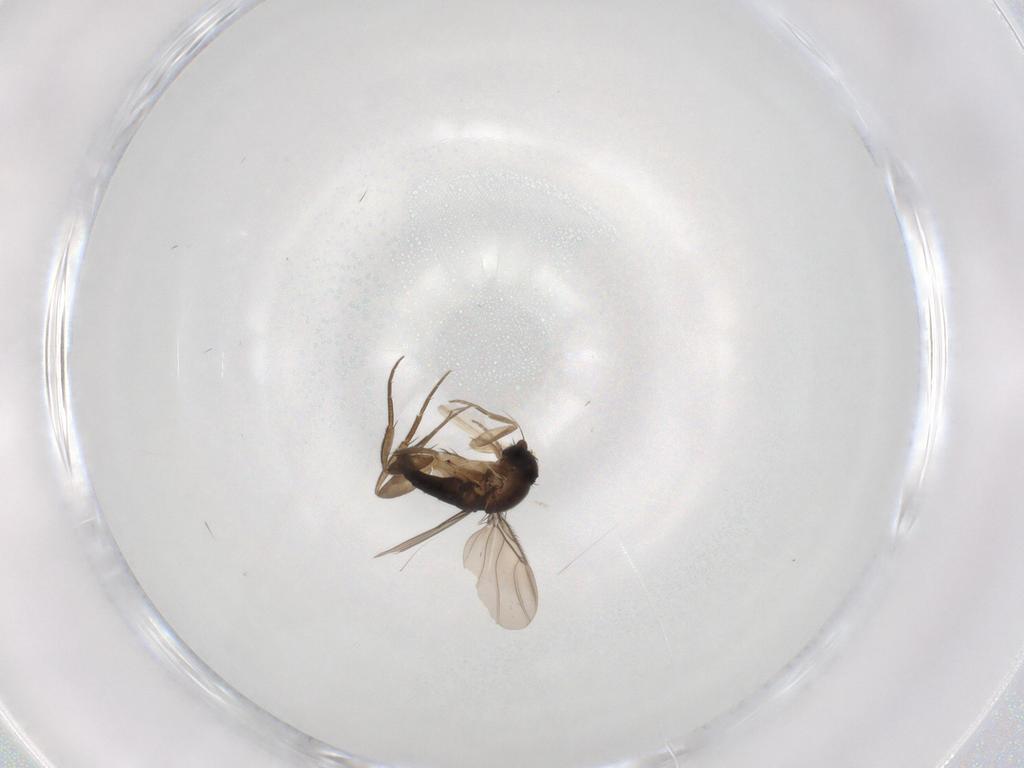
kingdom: Animalia
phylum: Arthropoda
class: Insecta
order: Diptera
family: Phoridae
